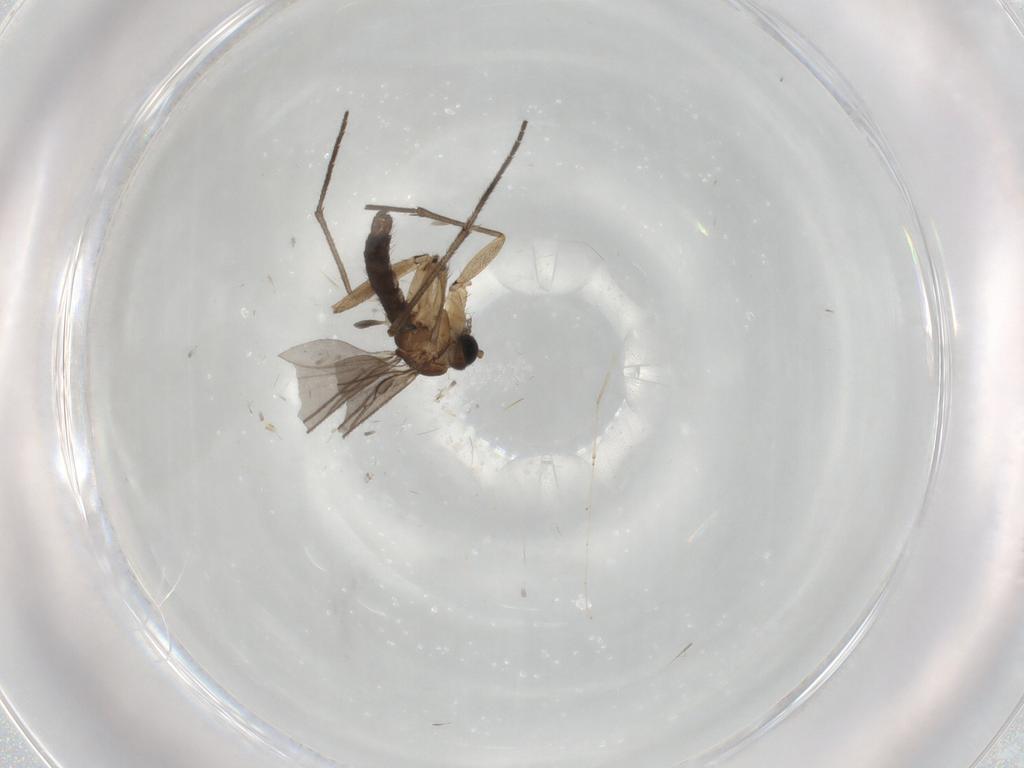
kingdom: Animalia
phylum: Arthropoda
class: Insecta
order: Diptera
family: Sciaridae
